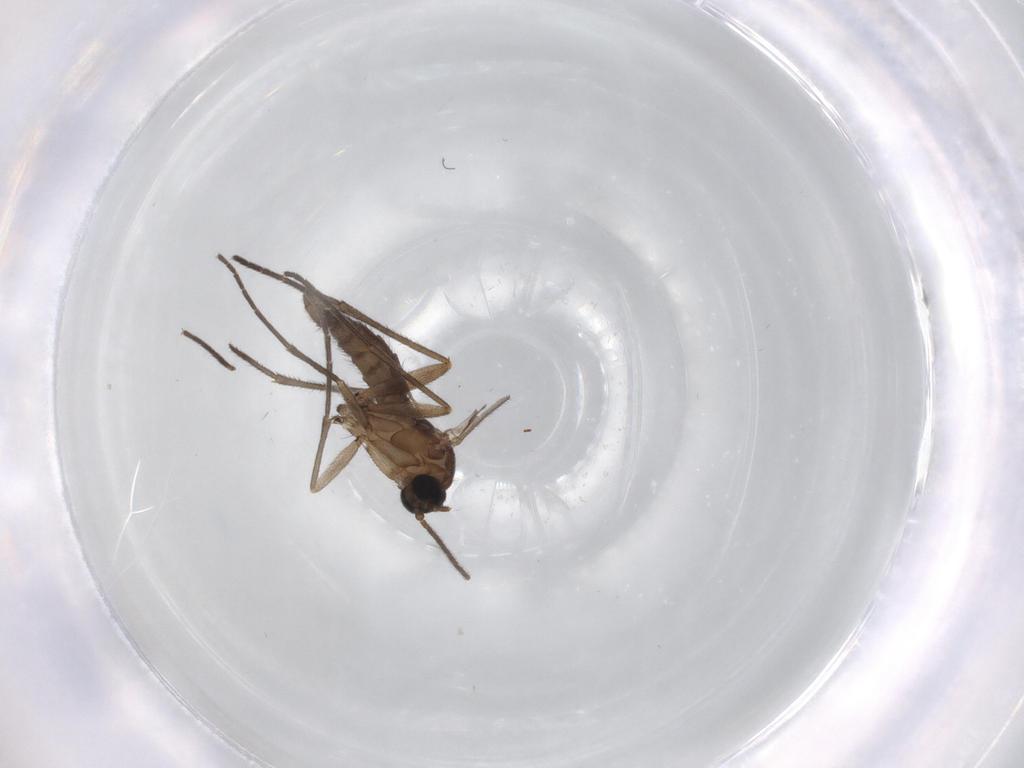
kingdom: Animalia
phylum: Arthropoda
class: Insecta
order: Diptera
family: Sciaridae
